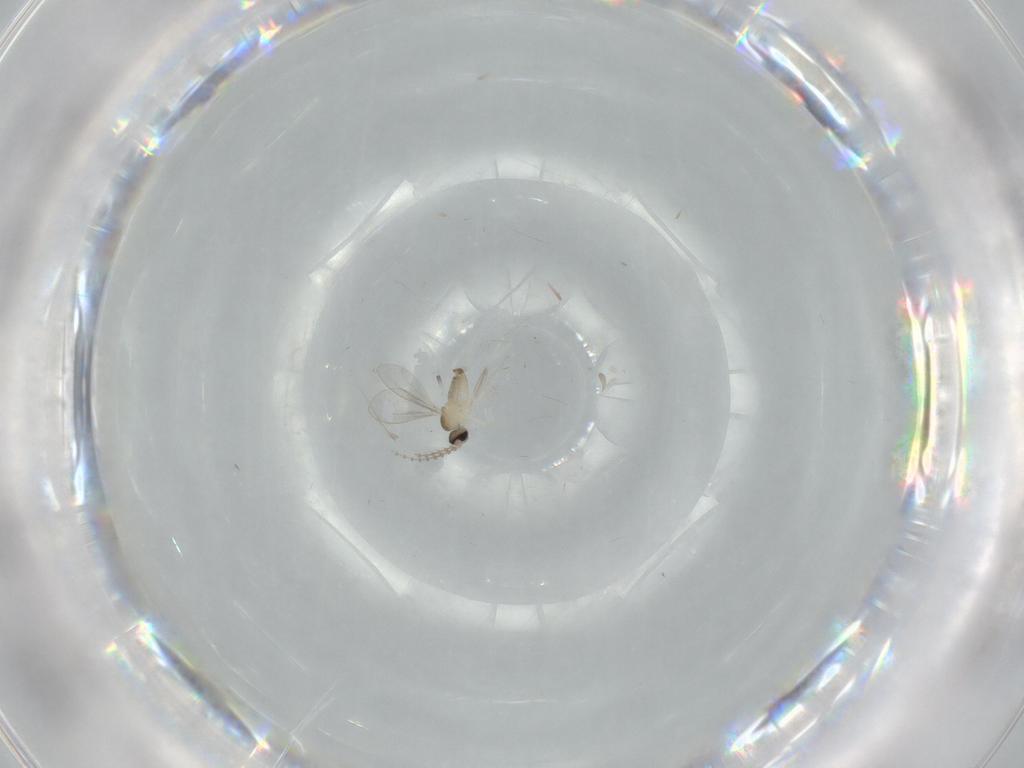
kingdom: Animalia
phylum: Arthropoda
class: Insecta
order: Diptera
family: Cecidomyiidae
